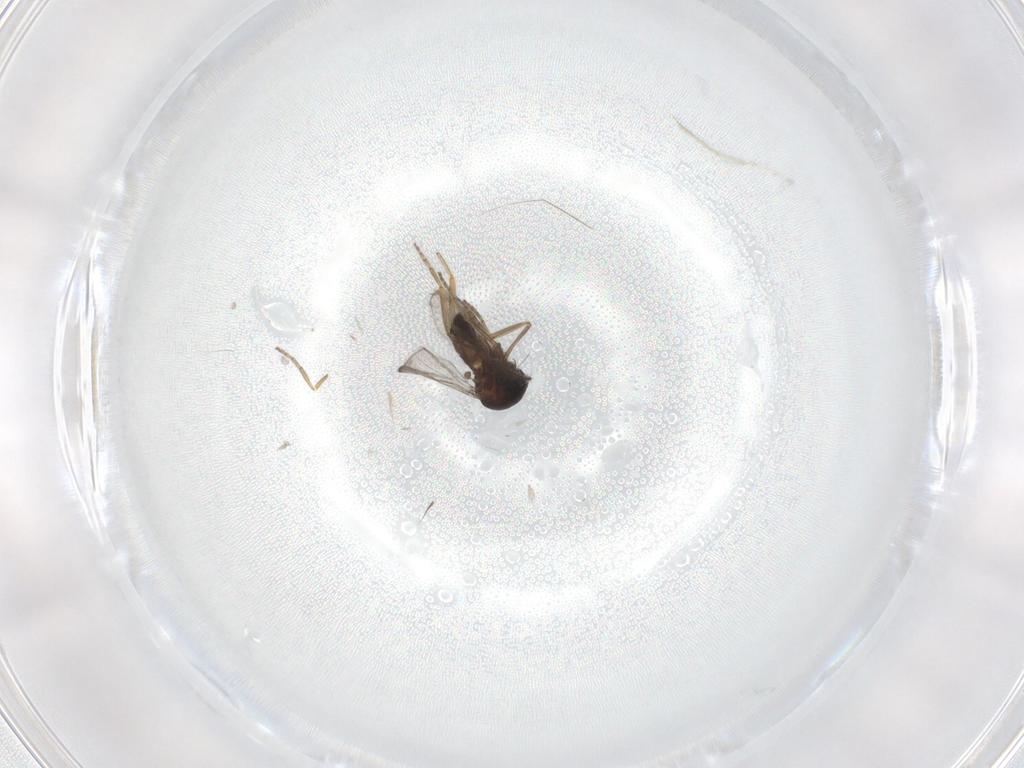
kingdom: Animalia
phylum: Arthropoda
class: Insecta
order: Diptera
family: Ceratopogonidae
